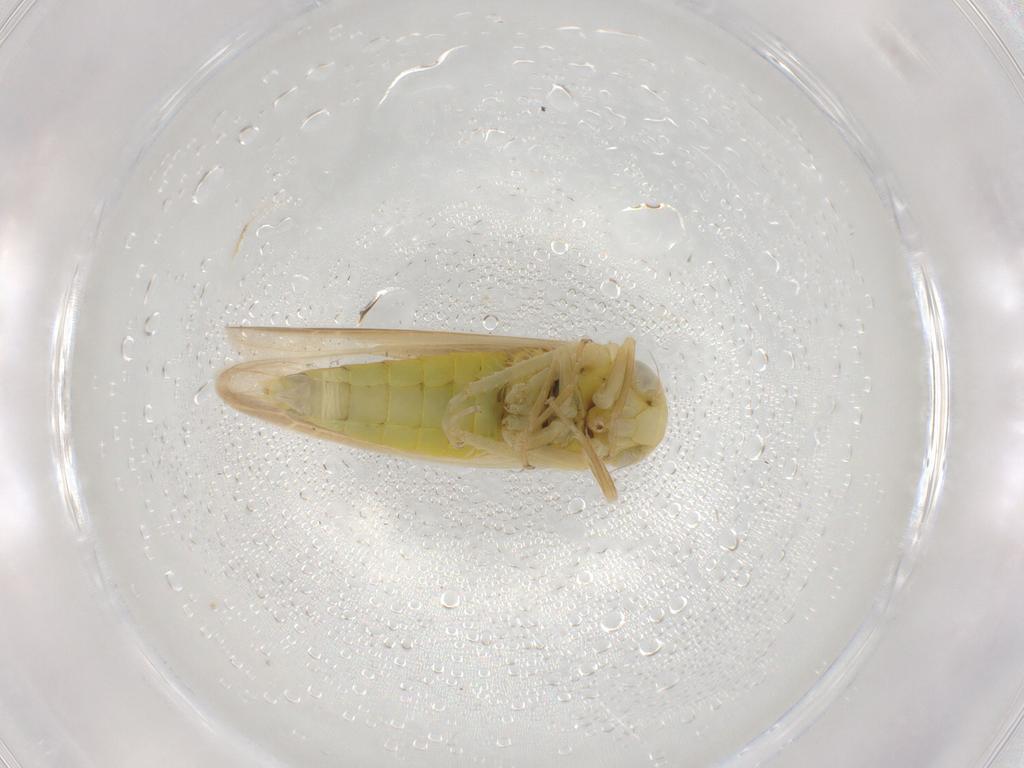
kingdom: Animalia
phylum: Arthropoda
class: Insecta
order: Hemiptera
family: Cicadellidae
